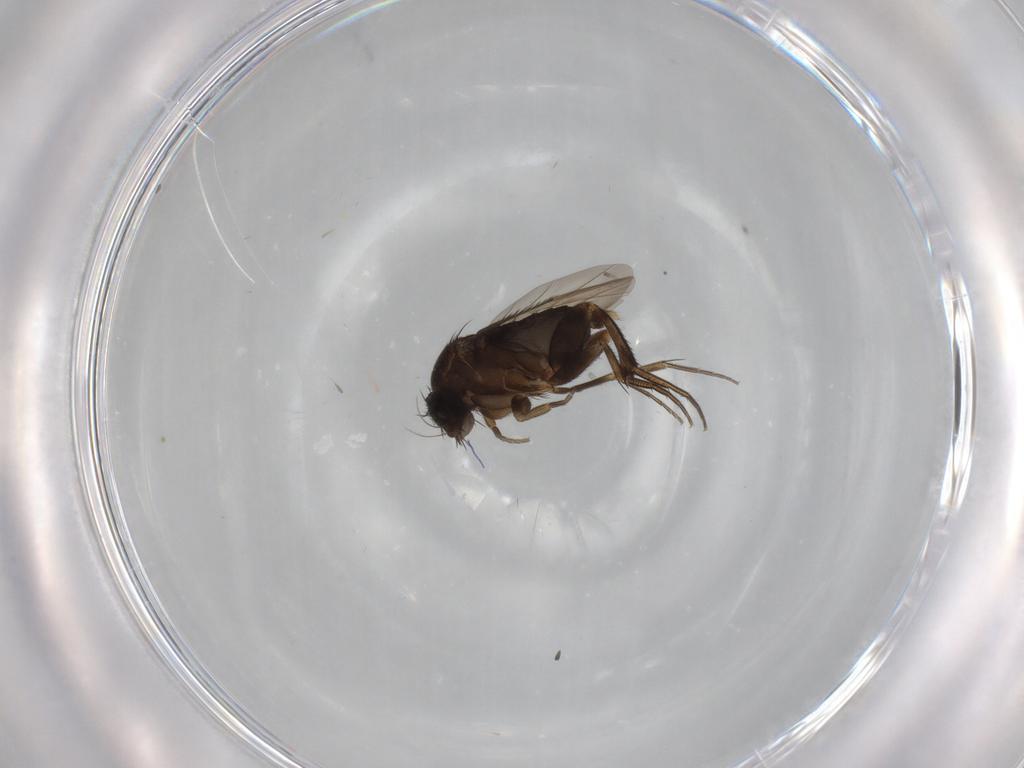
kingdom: Animalia
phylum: Arthropoda
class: Insecta
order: Diptera
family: Phoridae
